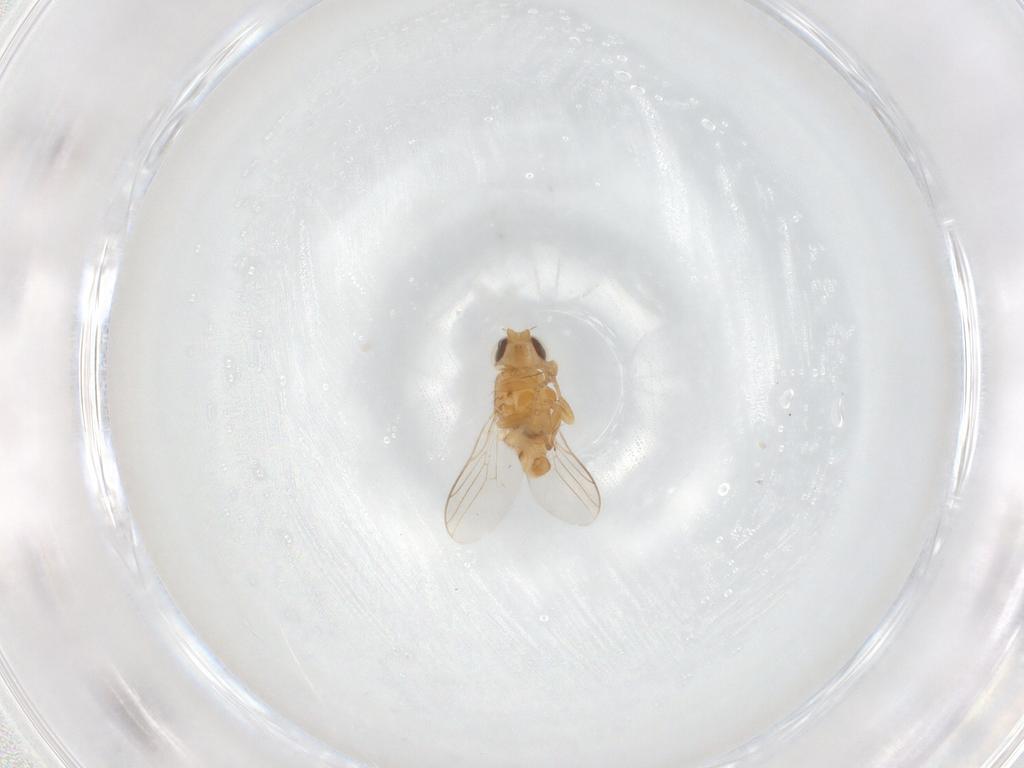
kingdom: Animalia
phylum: Arthropoda
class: Insecta
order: Diptera
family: Chloropidae
